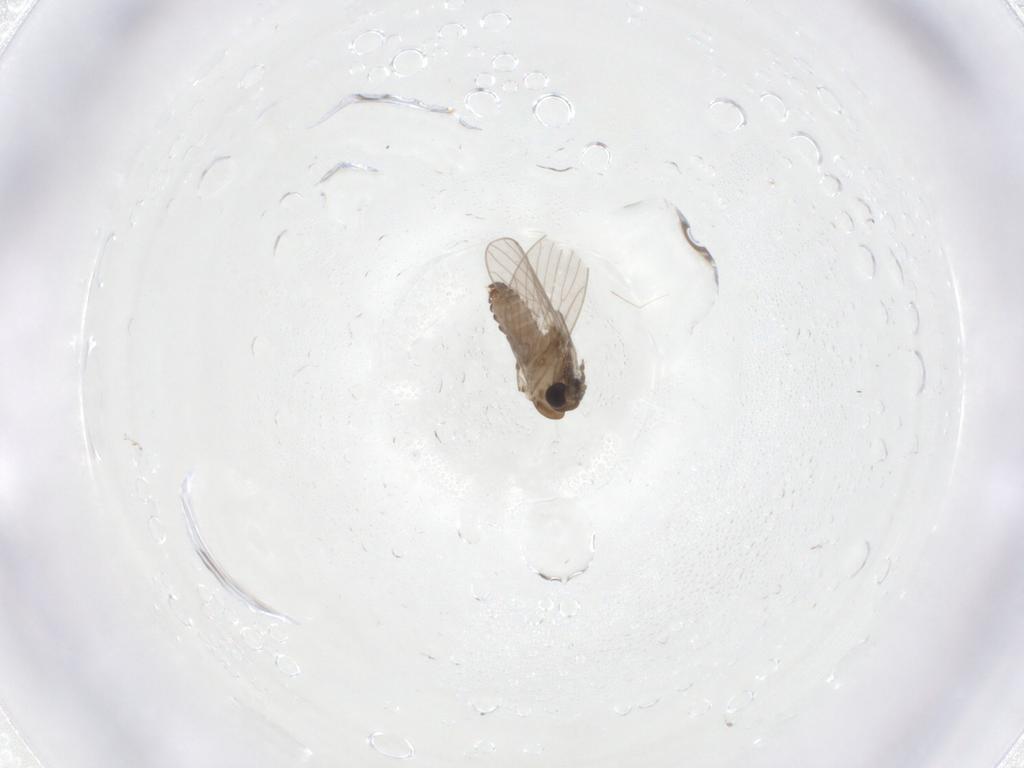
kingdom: Animalia
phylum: Arthropoda
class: Insecta
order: Diptera
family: Psychodidae
